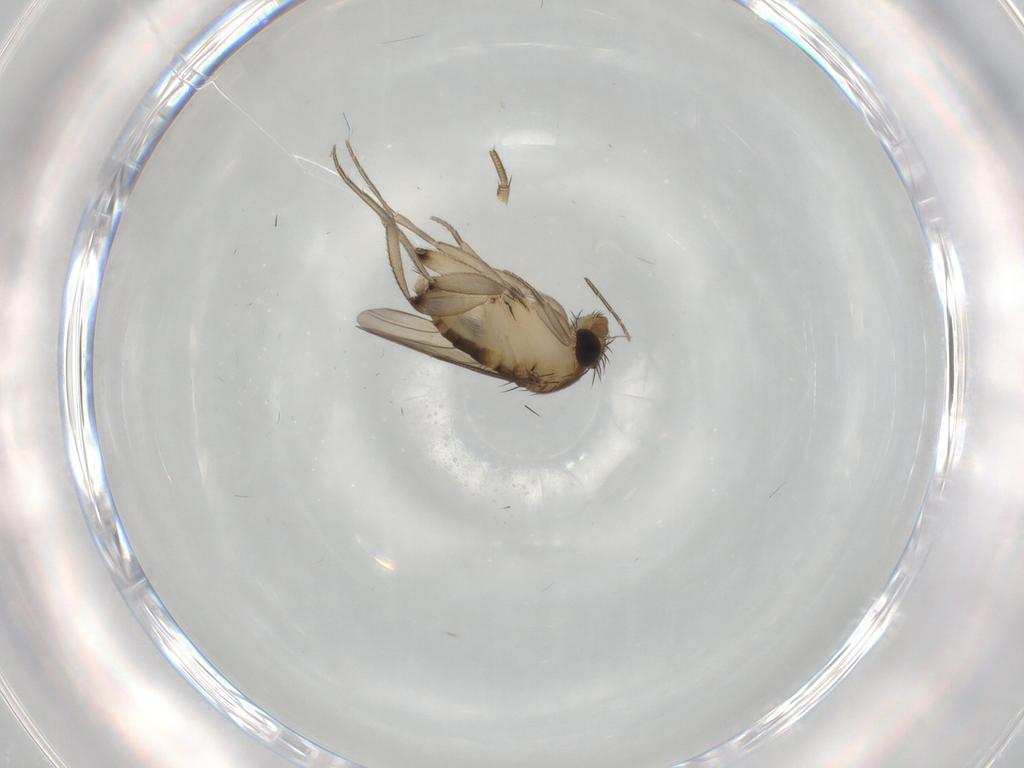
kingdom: Animalia
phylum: Arthropoda
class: Insecta
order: Diptera
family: Phoridae
